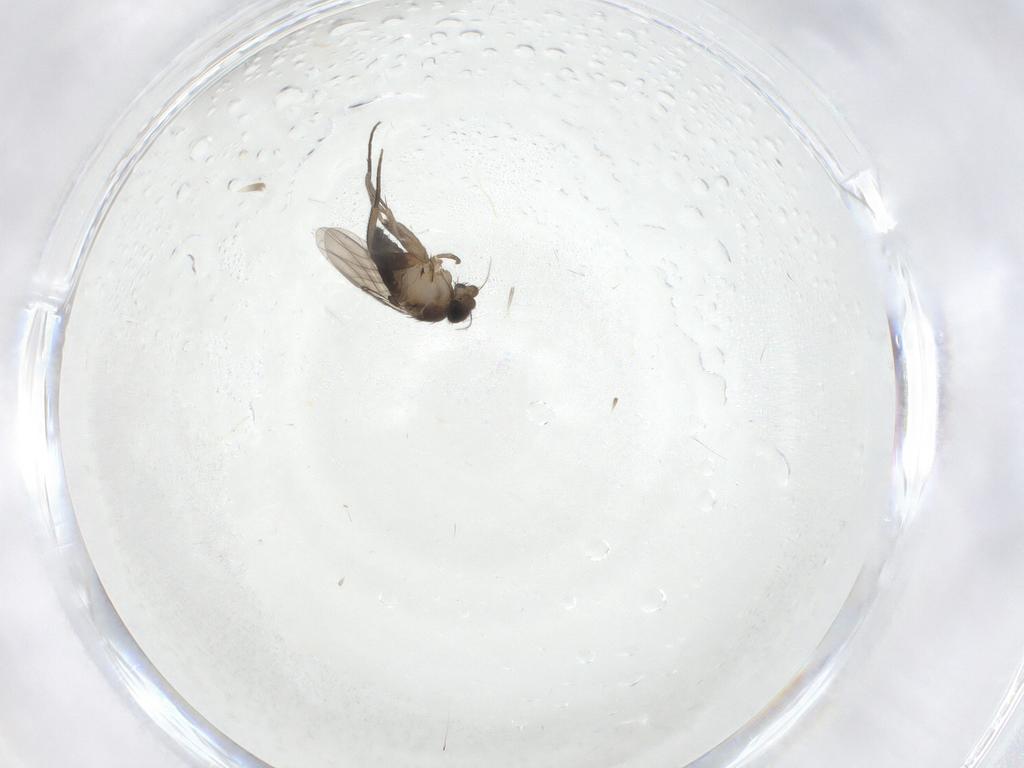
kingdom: Animalia
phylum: Arthropoda
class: Insecta
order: Diptera
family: Phoridae
